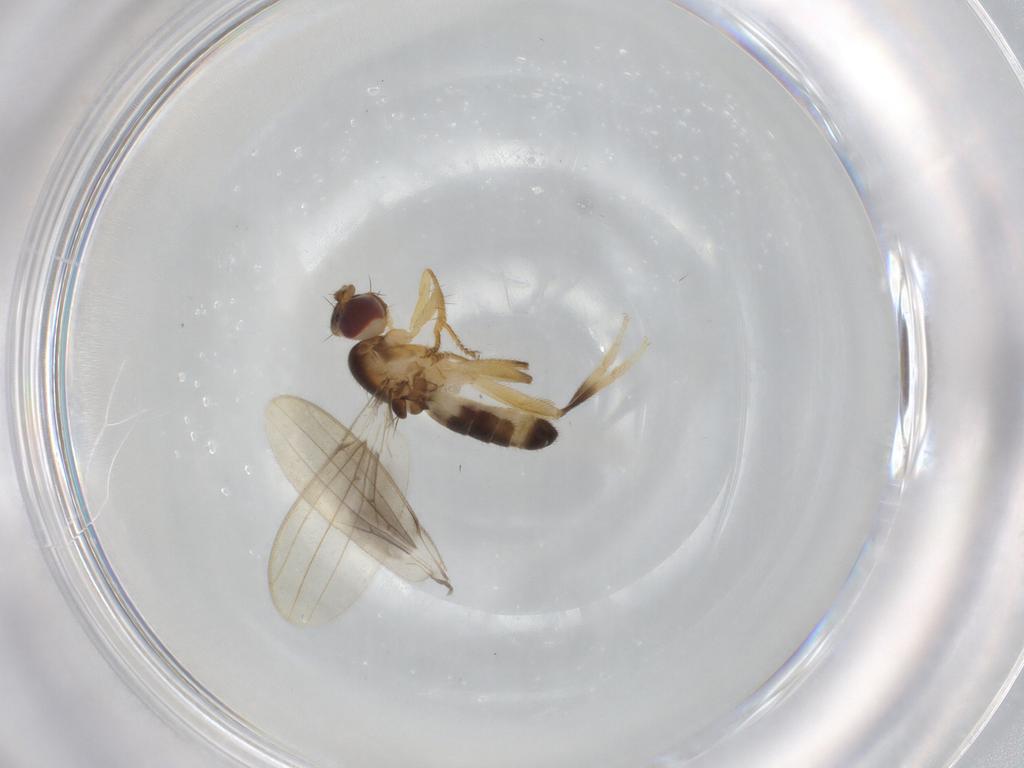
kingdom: Animalia
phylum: Arthropoda
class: Insecta
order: Diptera
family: Periscelididae
